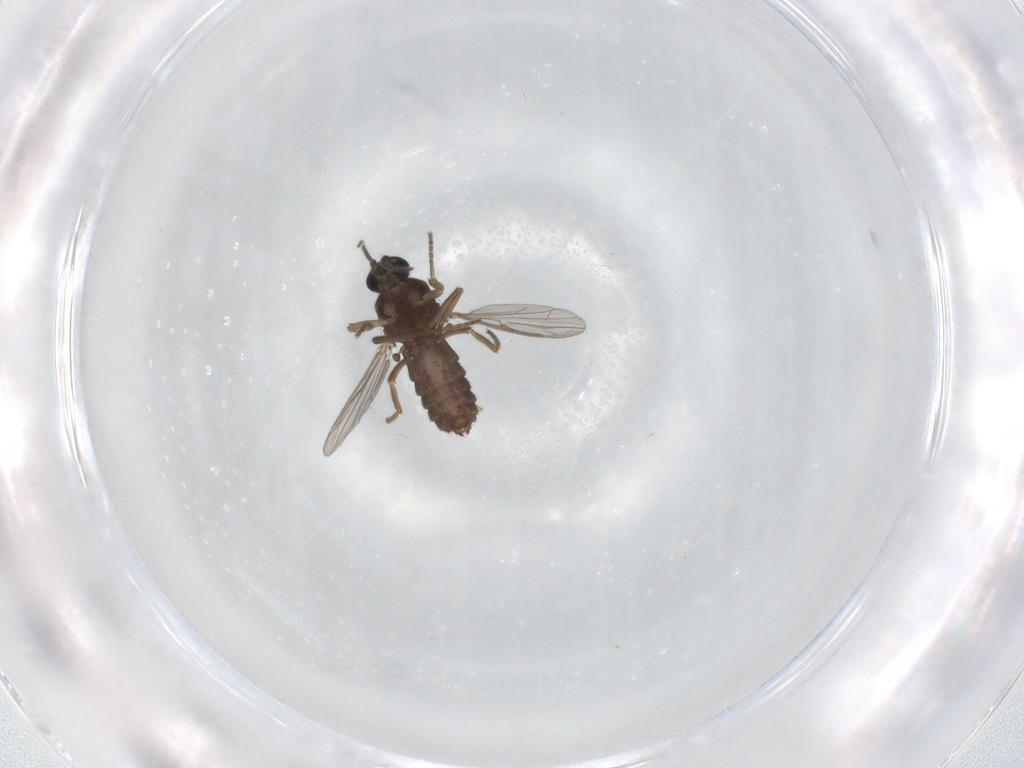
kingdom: Animalia
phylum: Arthropoda
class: Insecta
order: Diptera
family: Ceratopogonidae
